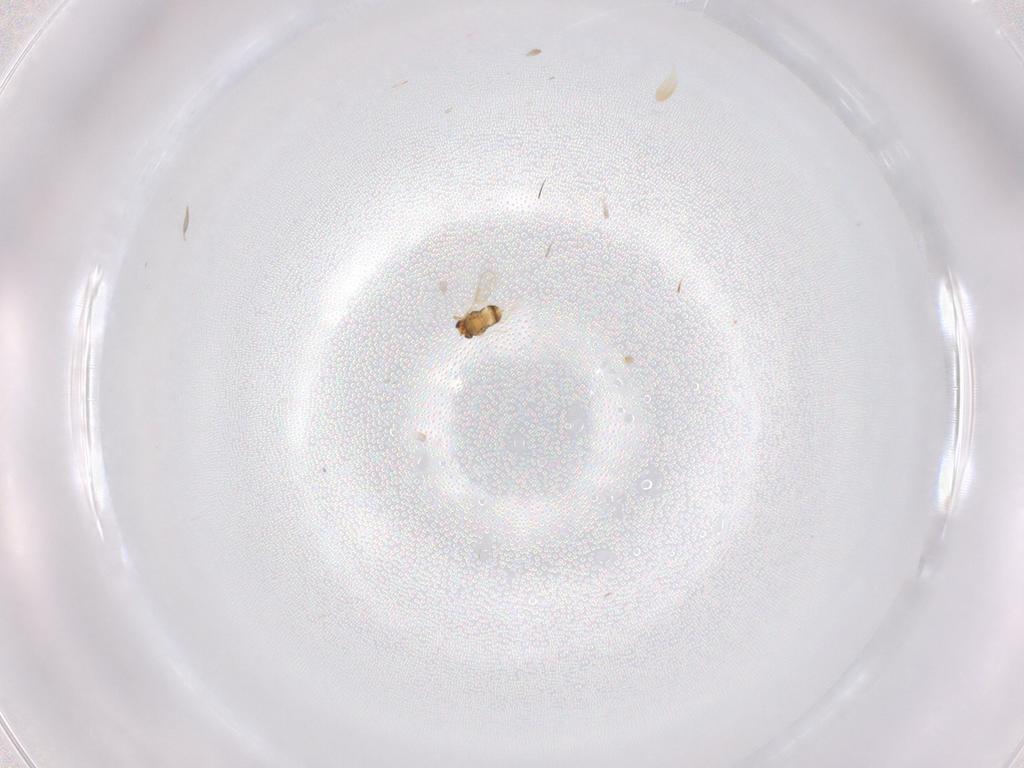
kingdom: Animalia
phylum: Arthropoda
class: Insecta
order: Hymenoptera
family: Aphelinidae
